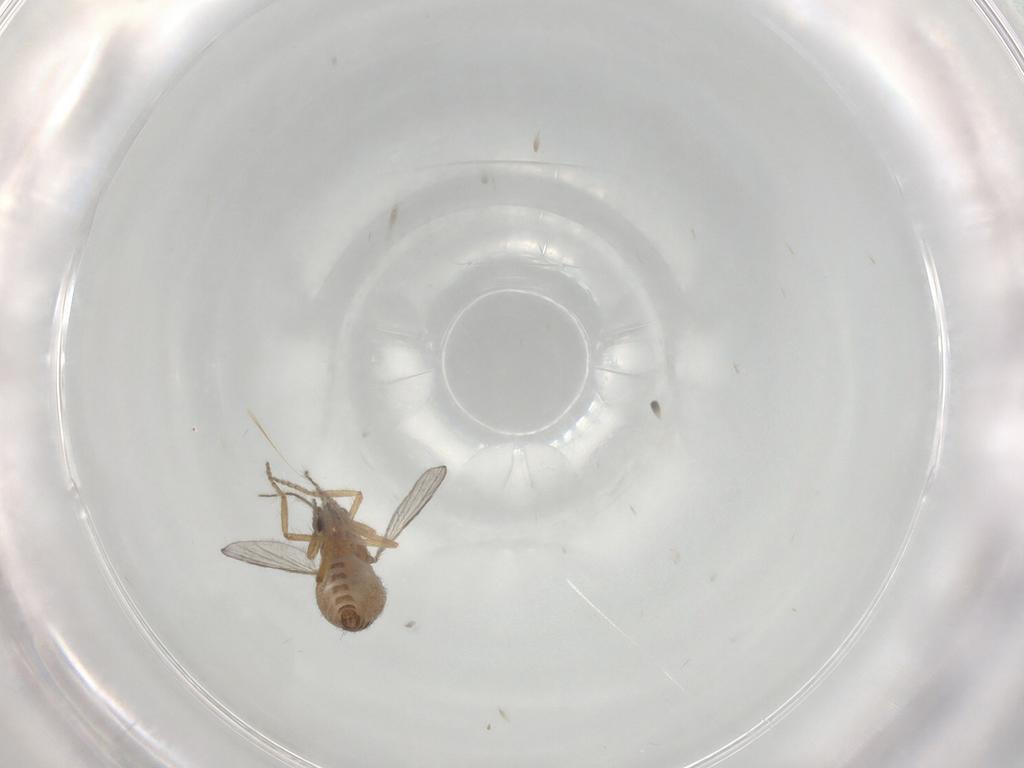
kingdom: Animalia
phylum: Arthropoda
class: Insecta
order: Diptera
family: Ceratopogonidae
